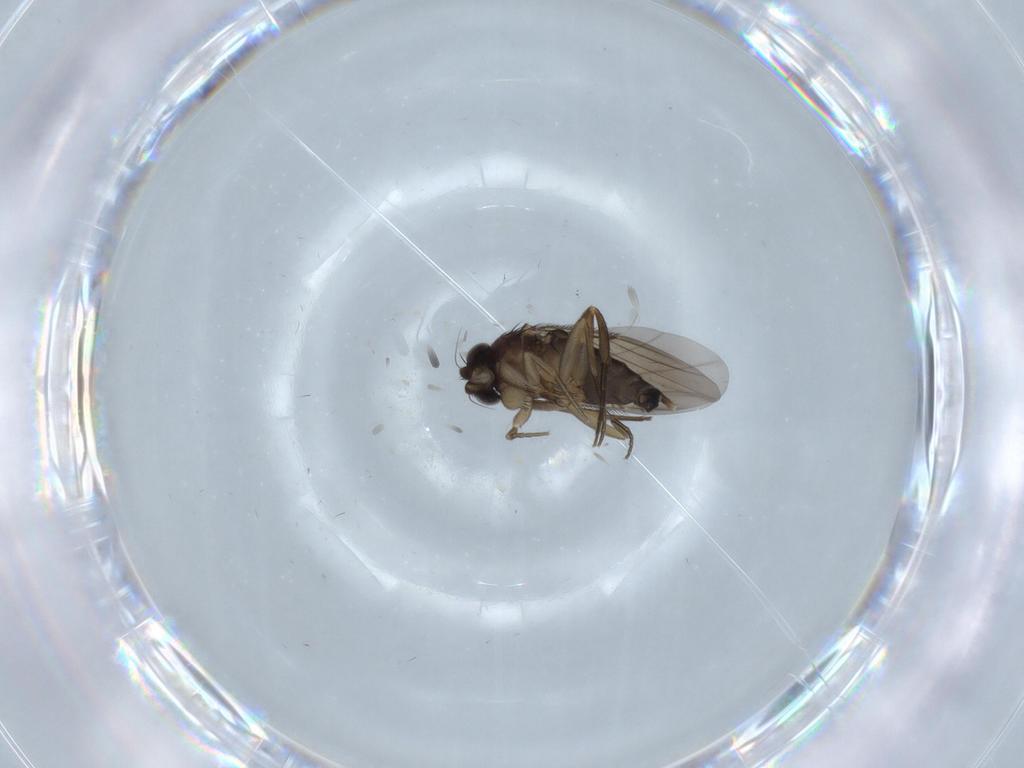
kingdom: Animalia
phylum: Arthropoda
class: Insecta
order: Diptera
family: Phoridae
